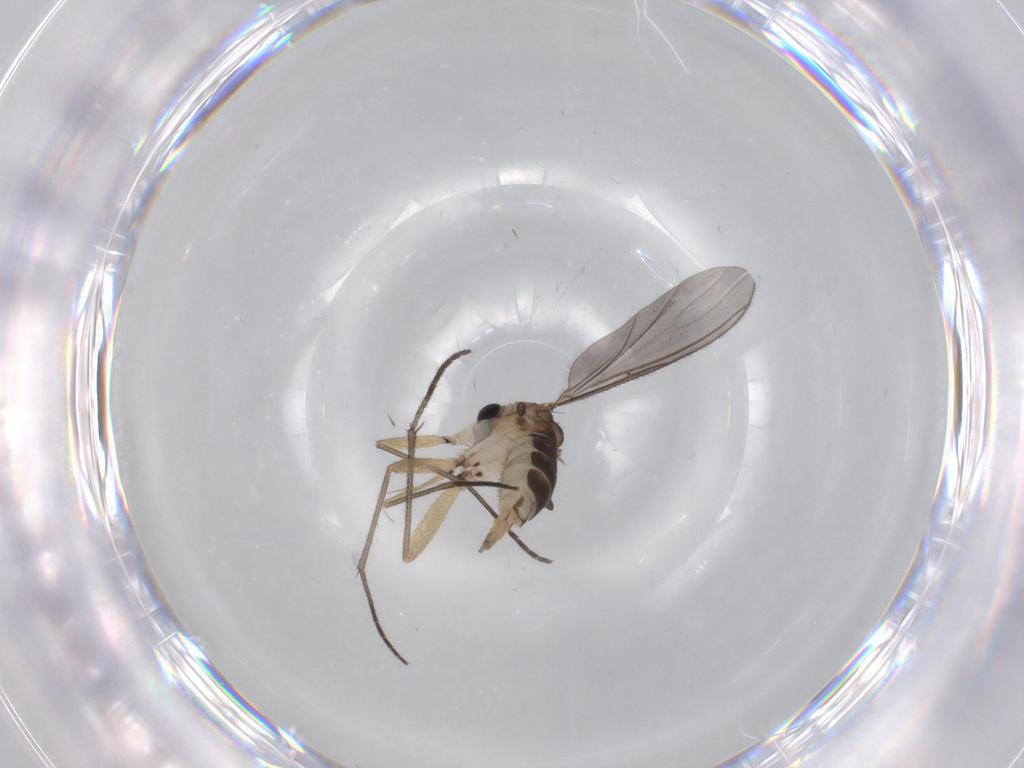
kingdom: Animalia
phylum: Arthropoda
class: Insecta
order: Diptera
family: Sciaridae
